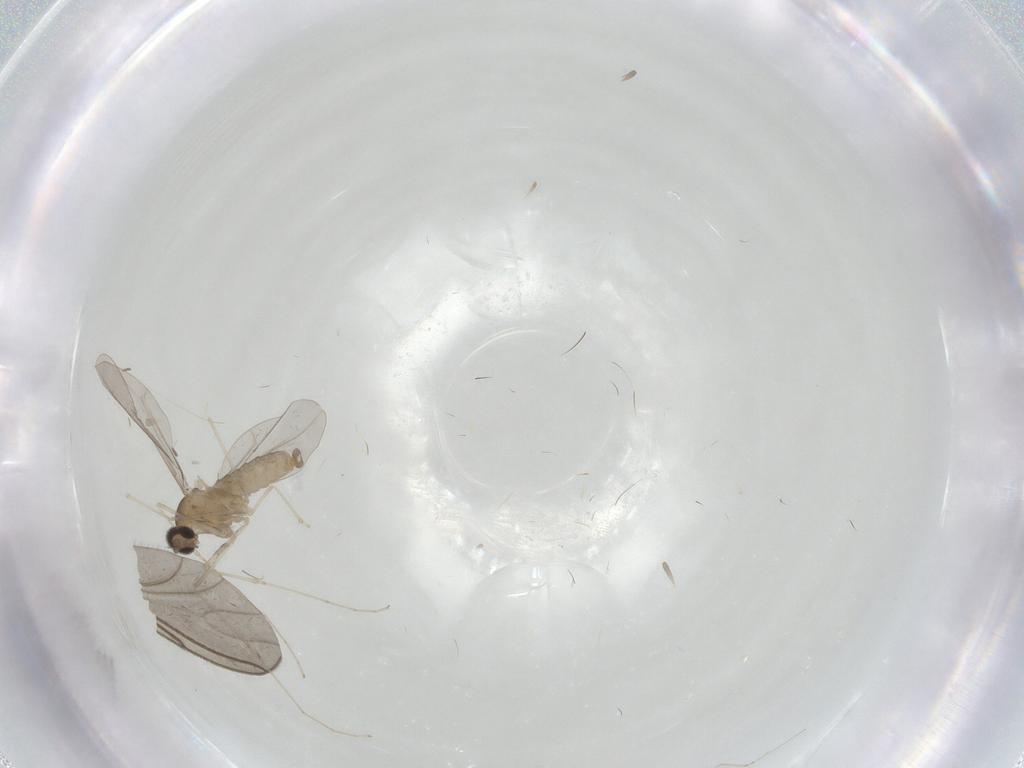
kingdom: Animalia
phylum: Arthropoda
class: Insecta
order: Diptera
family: Cecidomyiidae
